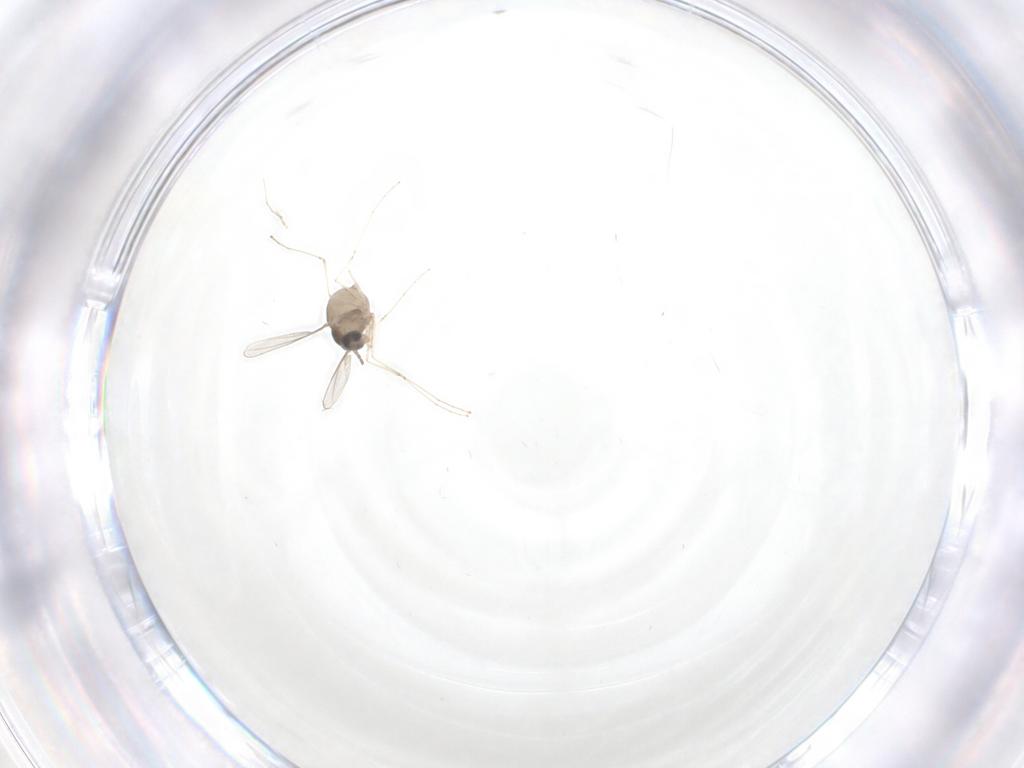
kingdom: Animalia
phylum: Arthropoda
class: Insecta
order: Diptera
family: Cecidomyiidae
